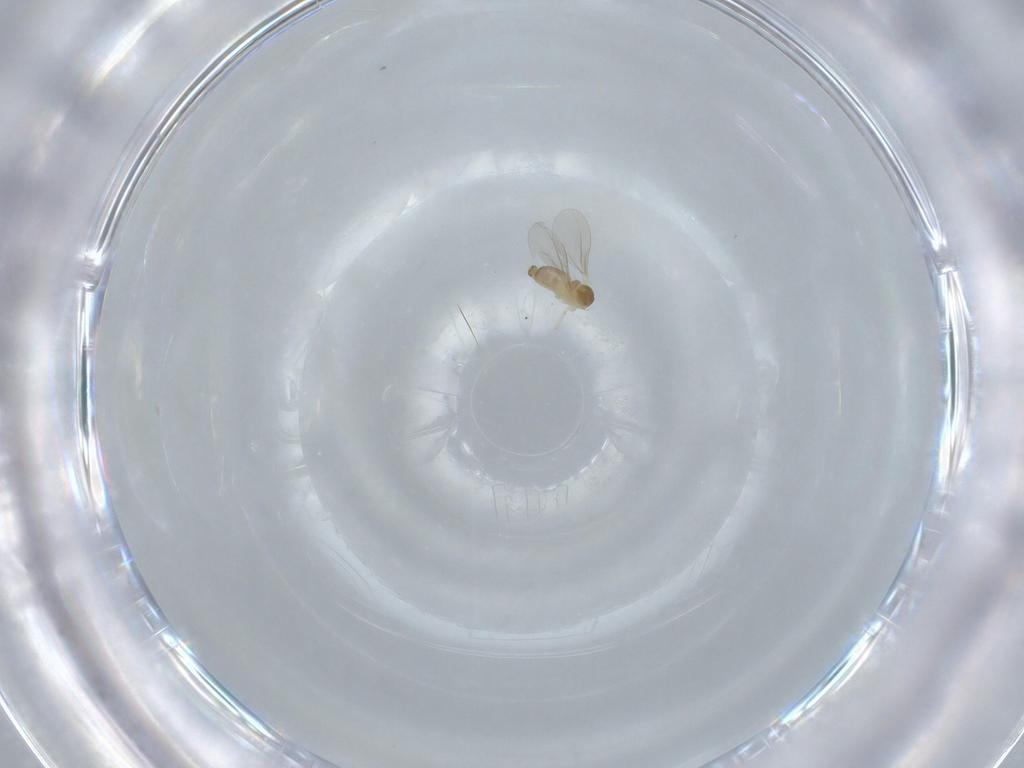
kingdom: Animalia
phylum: Arthropoda
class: Insecta
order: Diptera
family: Cecidomyiidae
